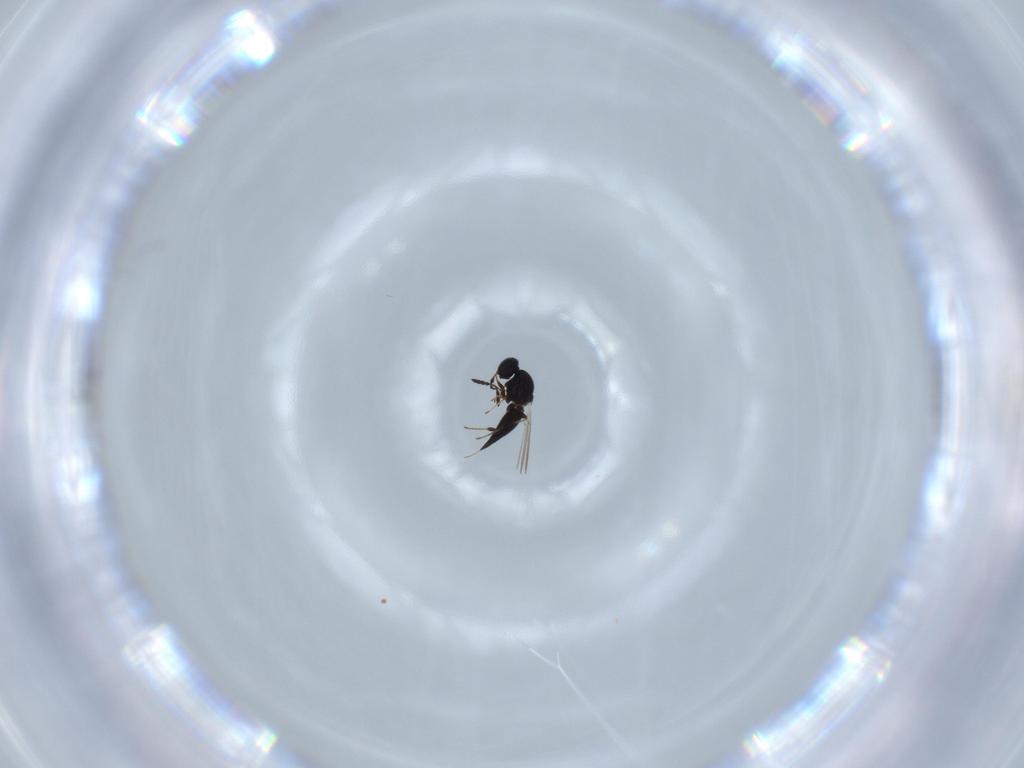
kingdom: Animalia
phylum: Arthropoda
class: Insecta
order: Hymenoptera
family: Platygastridae
